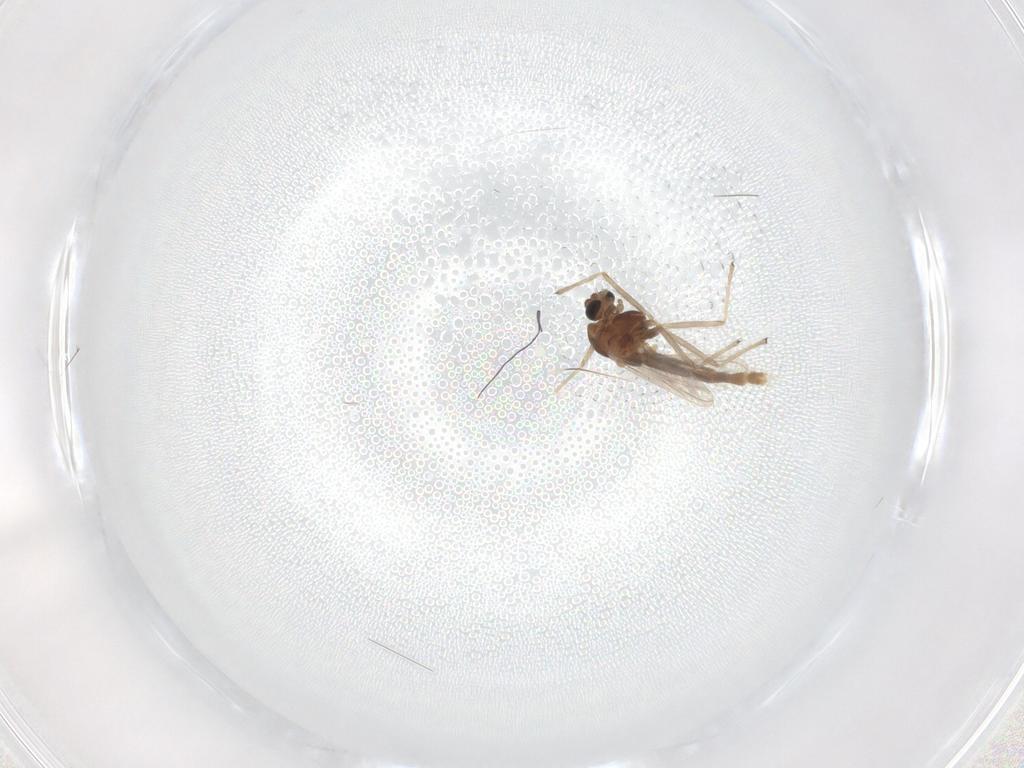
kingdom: Animalia
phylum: Arthropoda
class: Insecta
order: Diptera
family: Chironomidae
